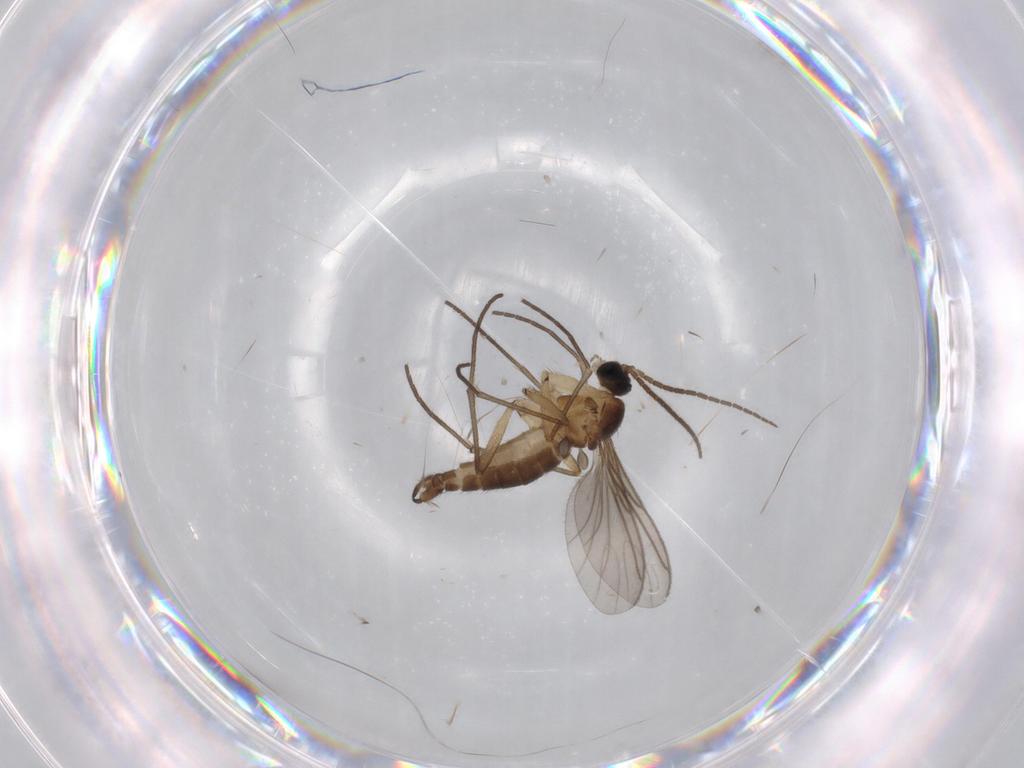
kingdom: Animalia
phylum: Arthropoda
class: Insecta
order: Diptera
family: Sciaridae
